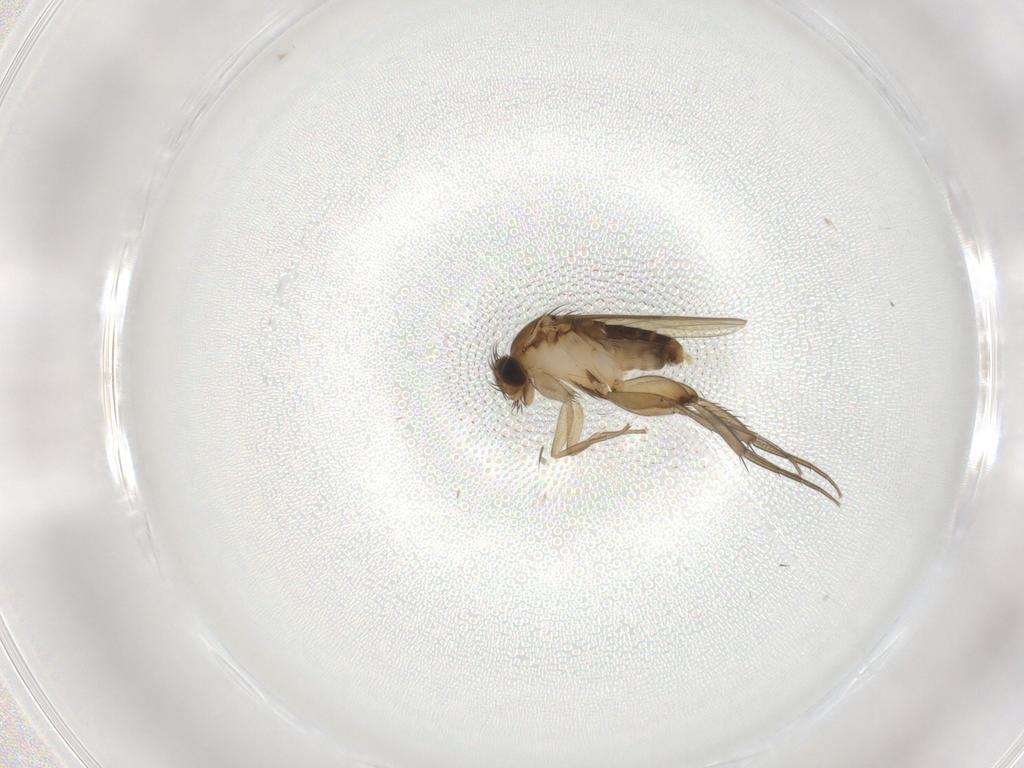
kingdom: Animalia
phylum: Arthropoda
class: Insecta
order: Diptera
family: Phoridae
